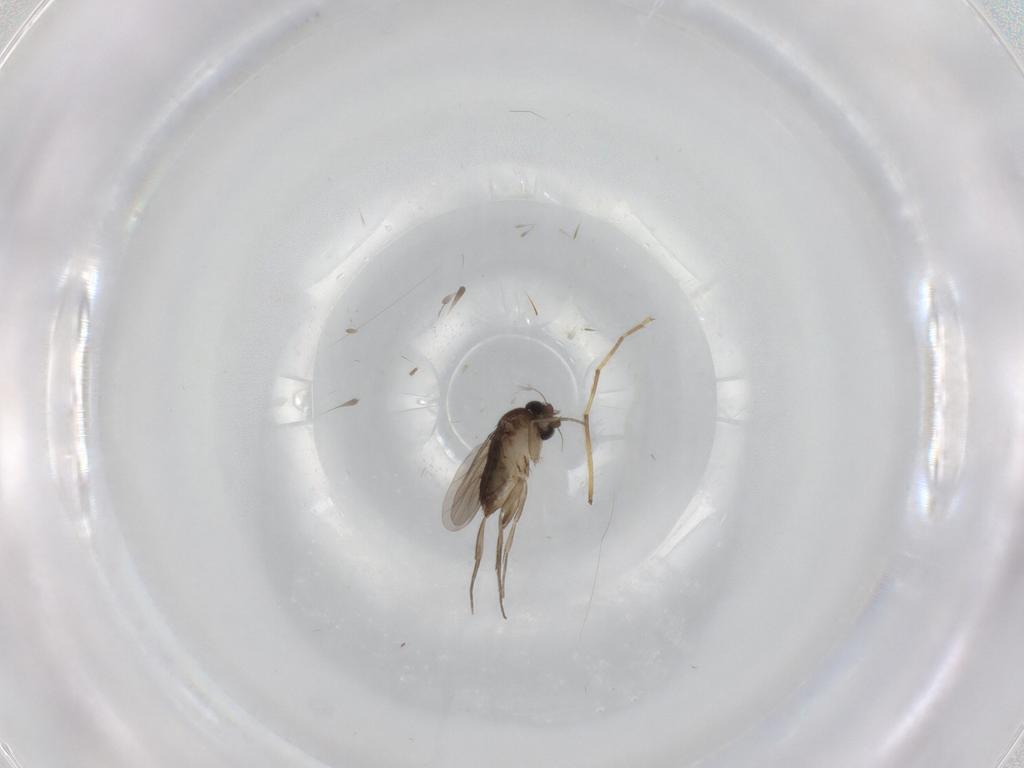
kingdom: Animalia
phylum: Arthropoda
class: Insecta
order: Diptera
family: Phoridae
